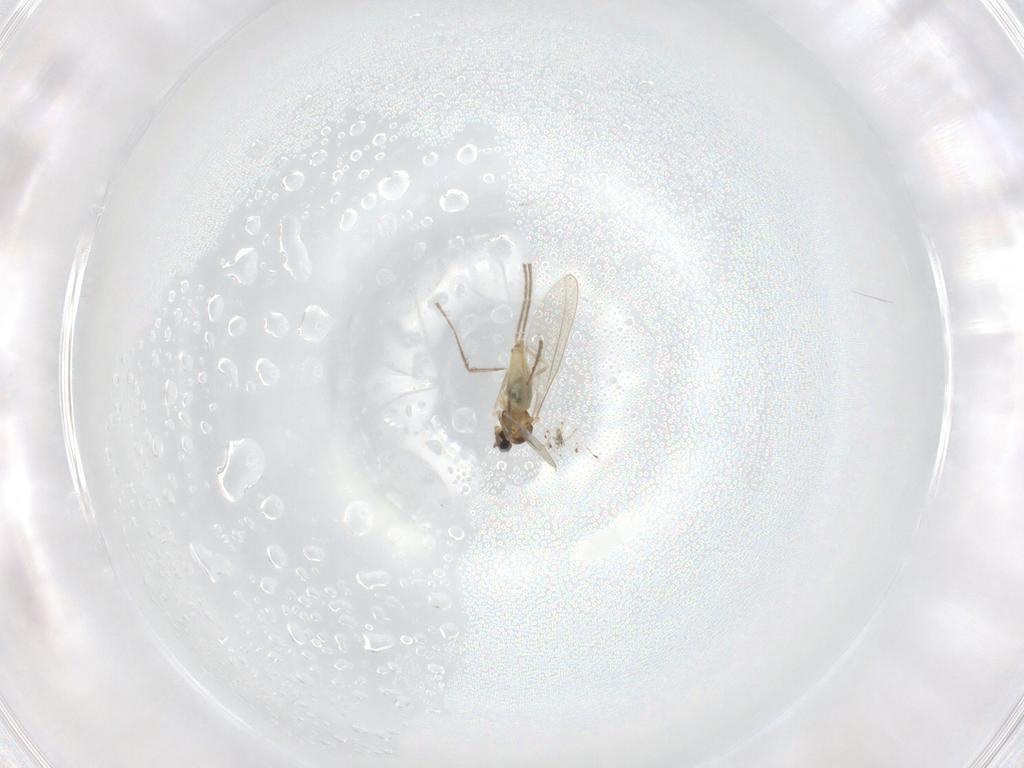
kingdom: Animalia
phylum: Arthropoda
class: Insecta
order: Diptera
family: Cecidomyiidae
